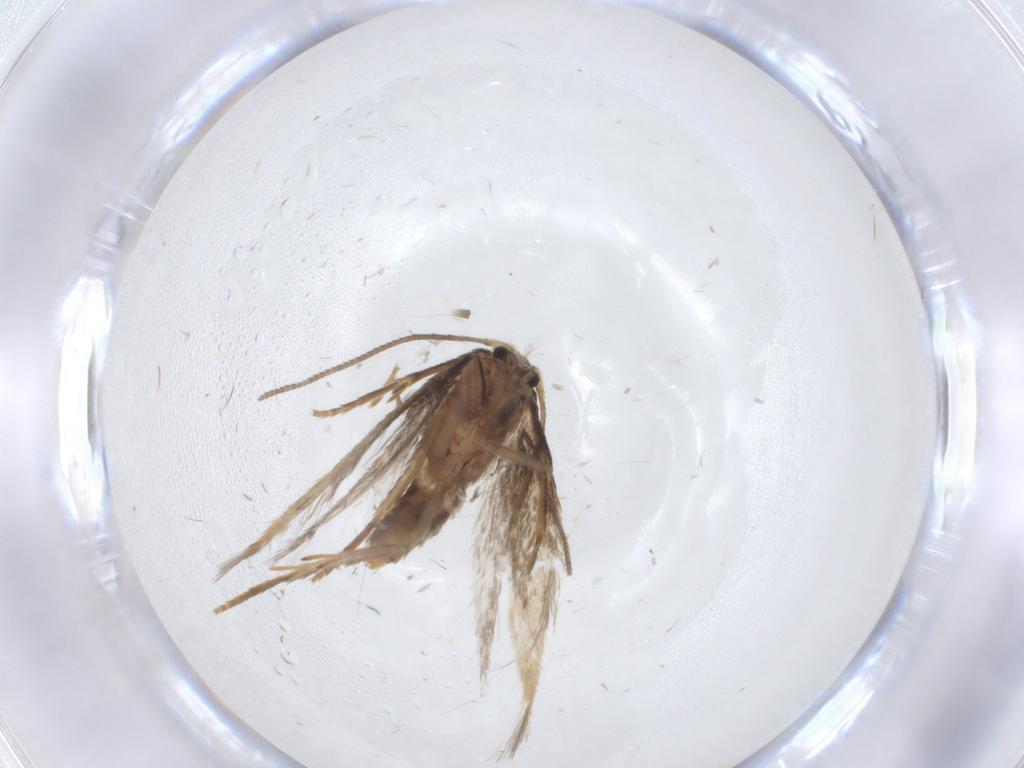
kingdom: Animalia
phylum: Arthropoda
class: Insecta
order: Lepidoptera
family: Nepticulidae
